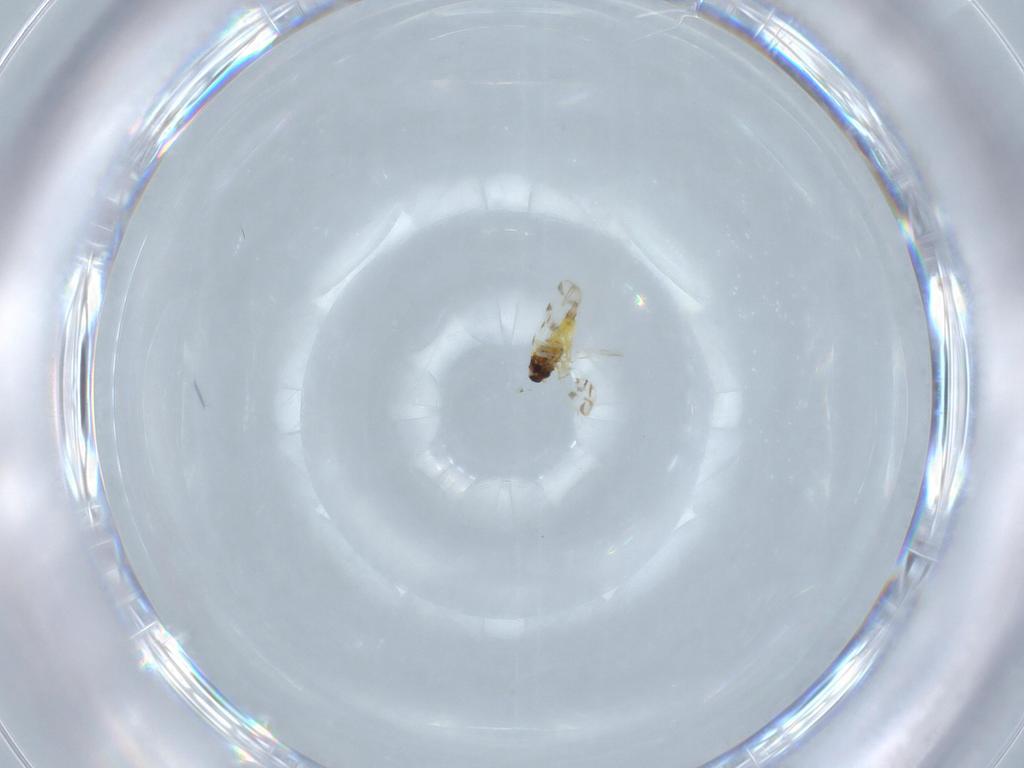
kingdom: Animalia
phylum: Arthropoda
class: Insecta
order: Hemiptera
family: Aleyrodidae
